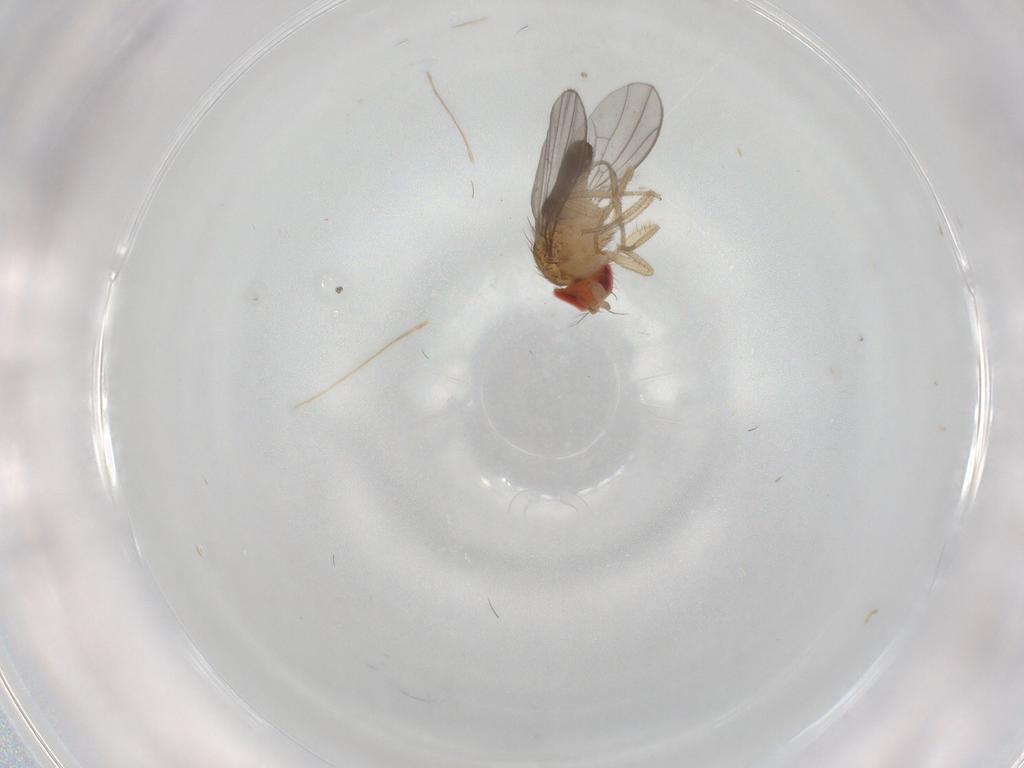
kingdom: Animalia
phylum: Arthropoda
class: Insecta
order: Diptera
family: Drosophilidae
